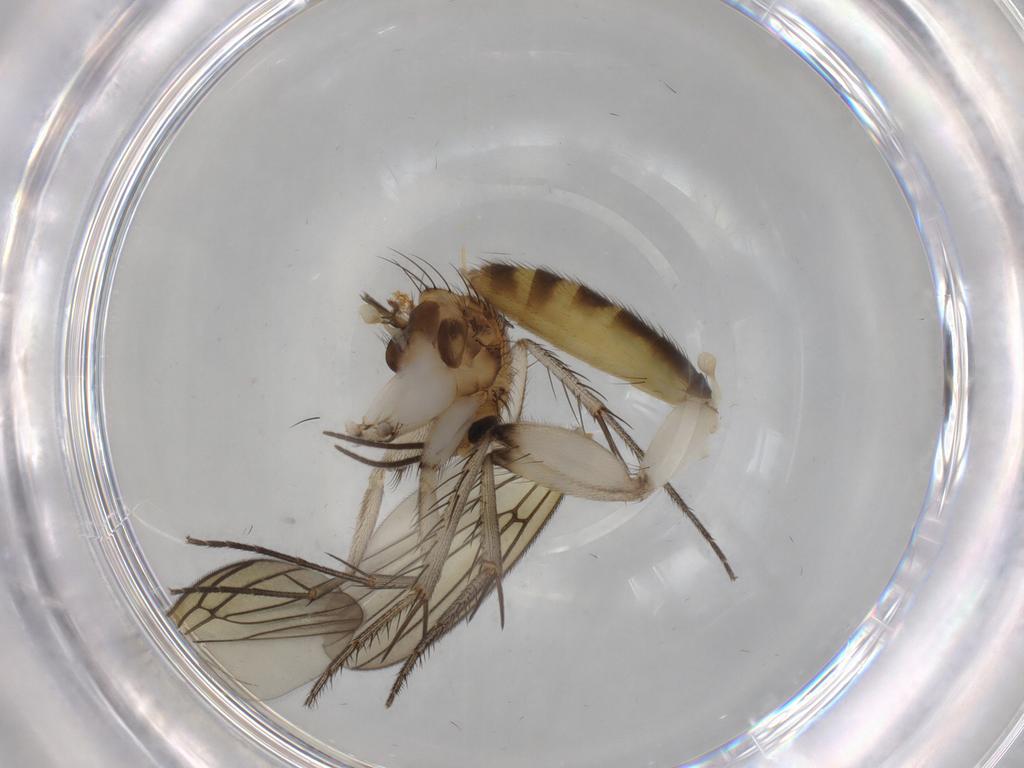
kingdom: Animalia
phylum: Arthropoda
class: Insecta
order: Diptera
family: Mycetophilidae
